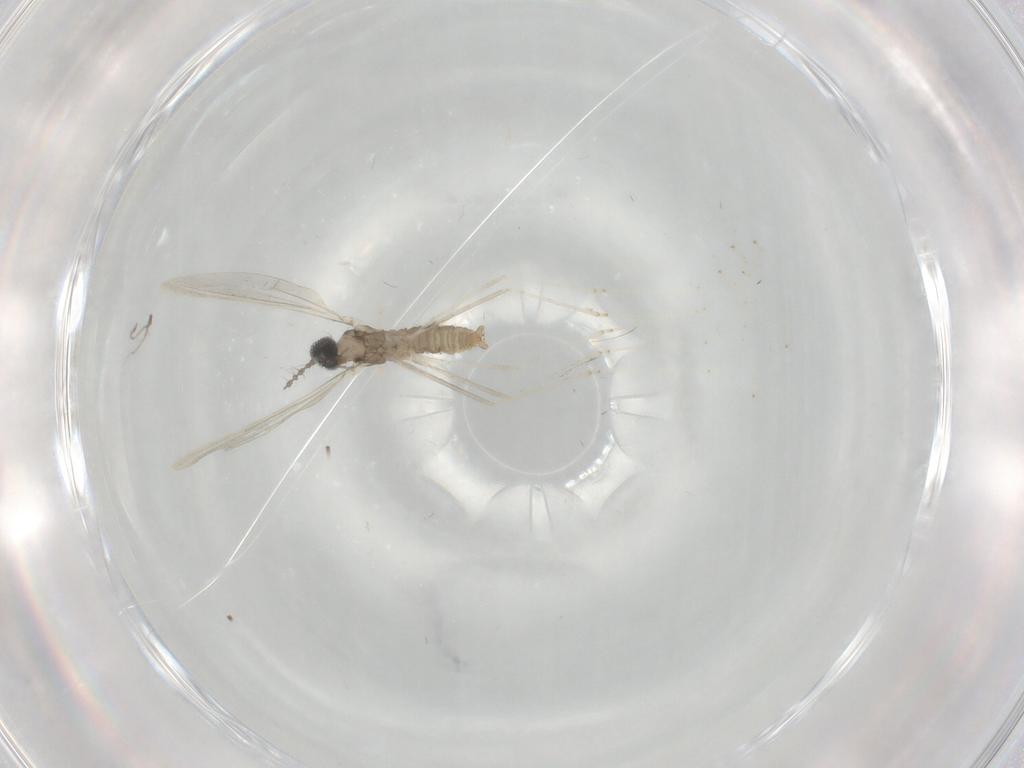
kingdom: Animalia
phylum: Arthropoda
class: Insecta
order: Diptera
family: Cecidomyiidae
